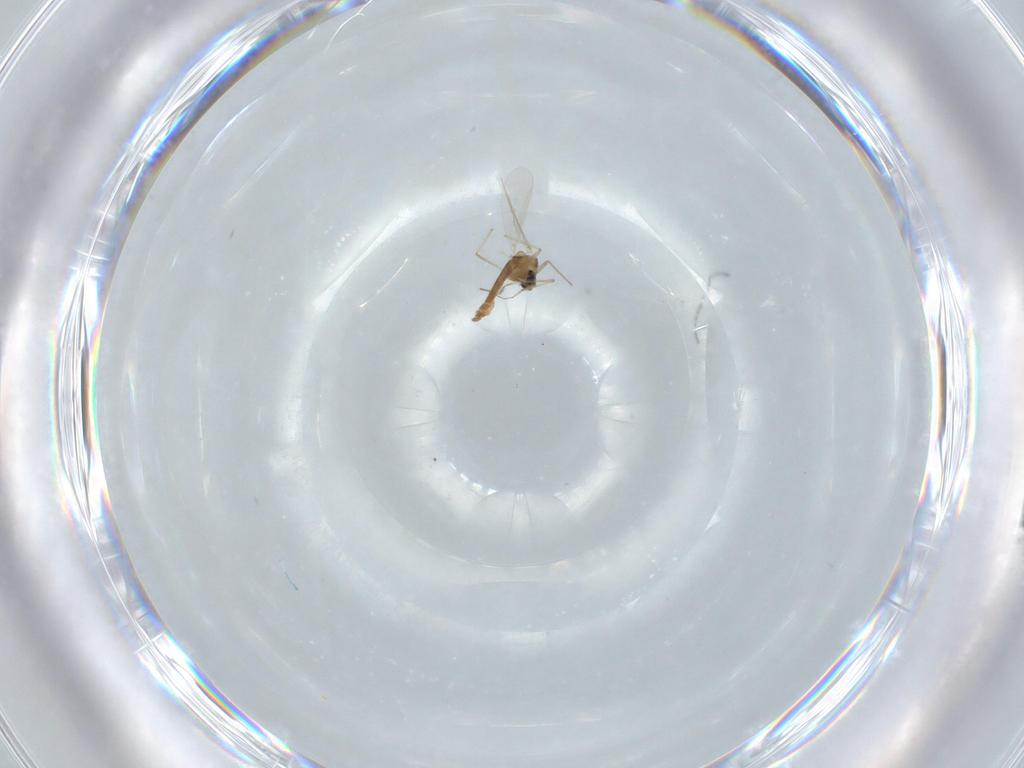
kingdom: Animalia
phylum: Arthropoda
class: Insecta
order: Diptera
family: Chironomidae
